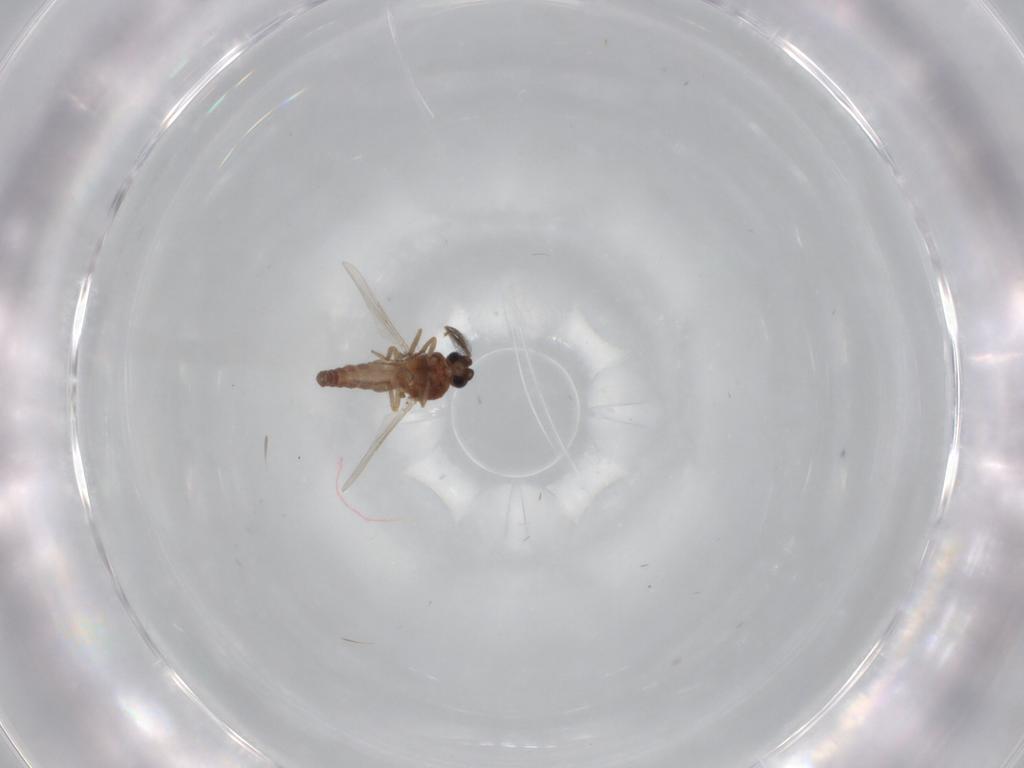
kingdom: Animalia
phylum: Arthropoda
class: Insecta
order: Diptera
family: Ceratopogonidae
